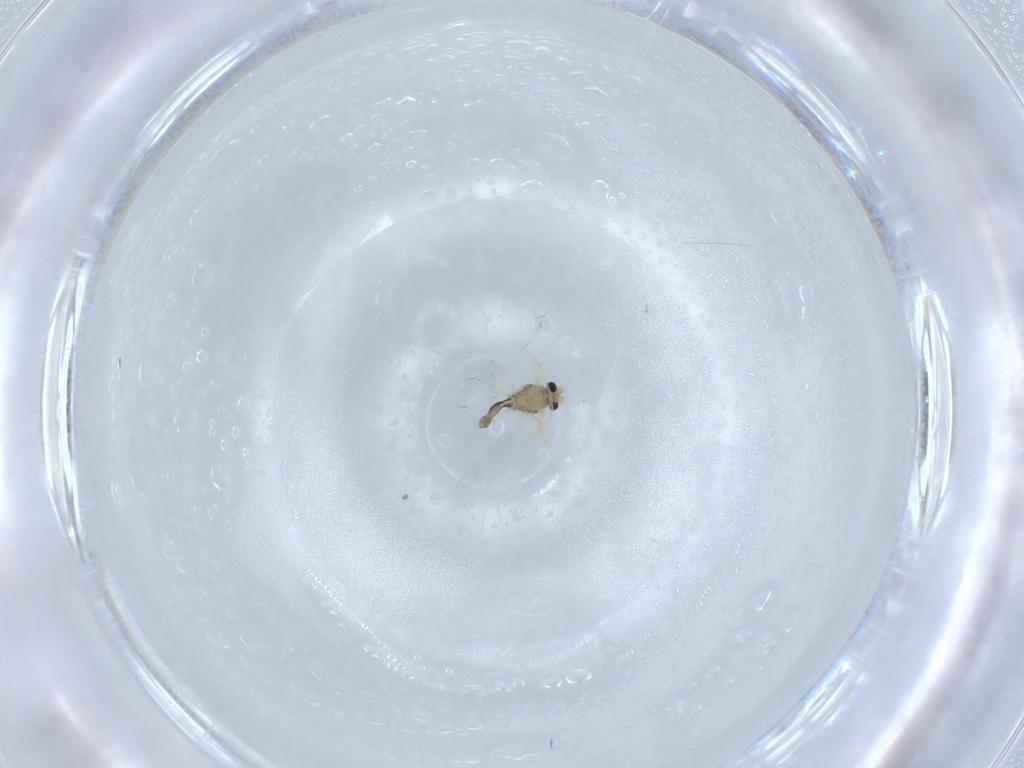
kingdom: Animalia
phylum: Arthropoda
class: Insecta
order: Diptera
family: Chironomidae
